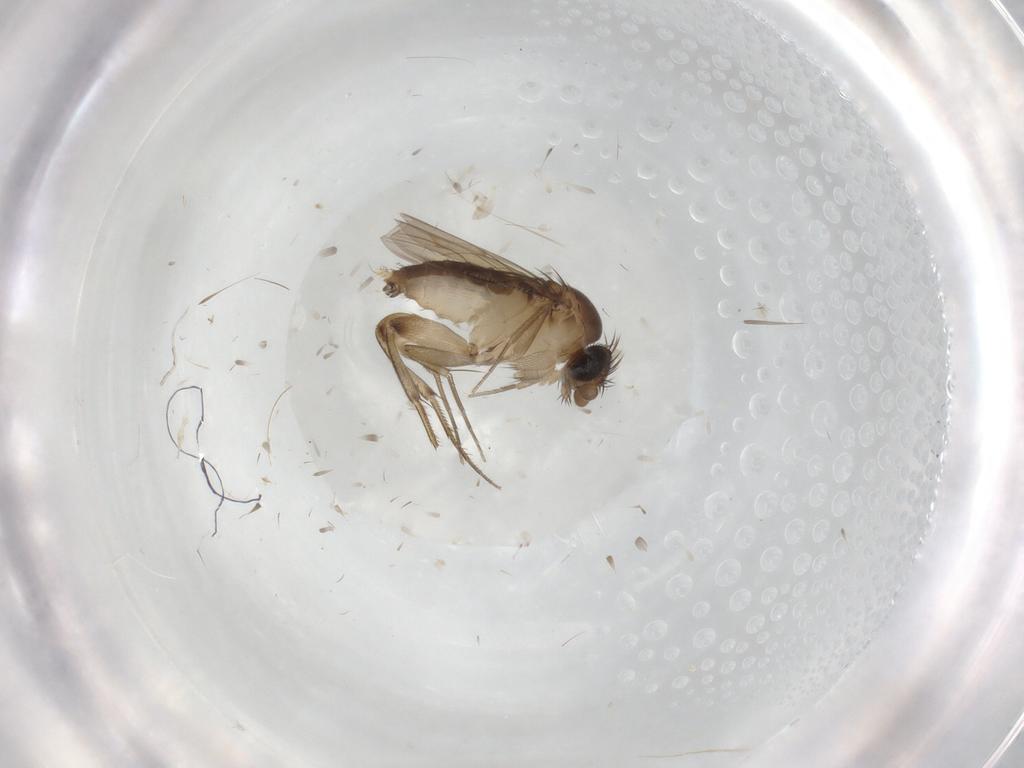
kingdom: Animalia
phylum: Arthropoda
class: Insecta
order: Diptera
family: Phoridae
